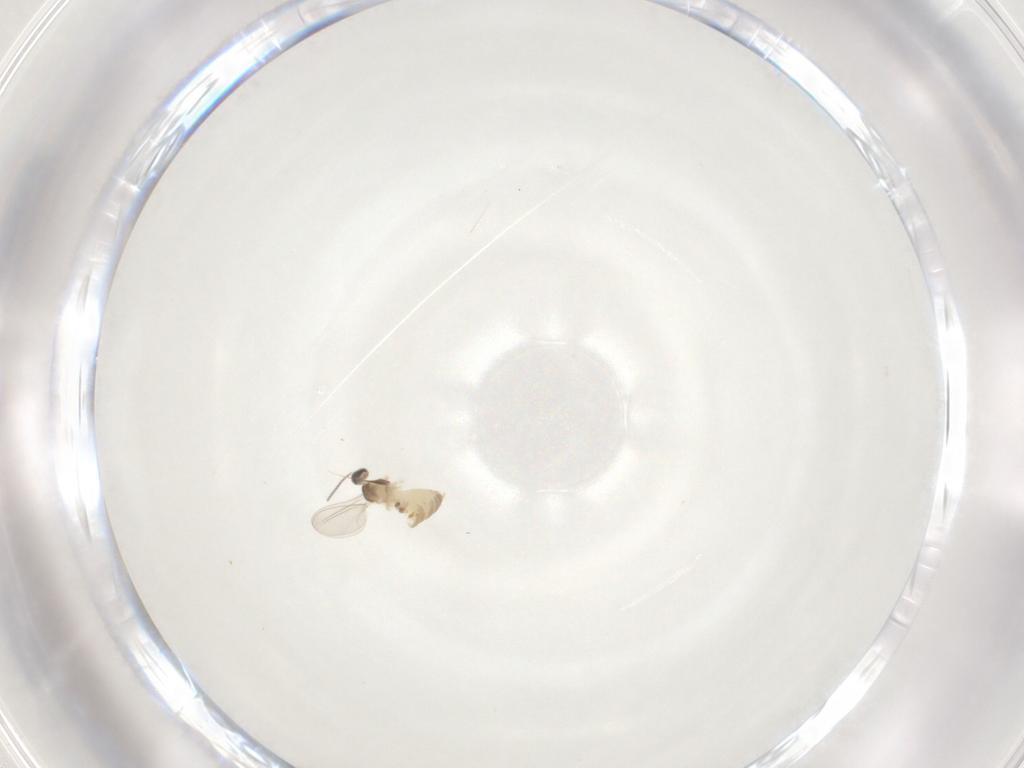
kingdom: Animalia
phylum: Arthropoda
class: Insecta
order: Diptera
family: Cecidomyiidae
